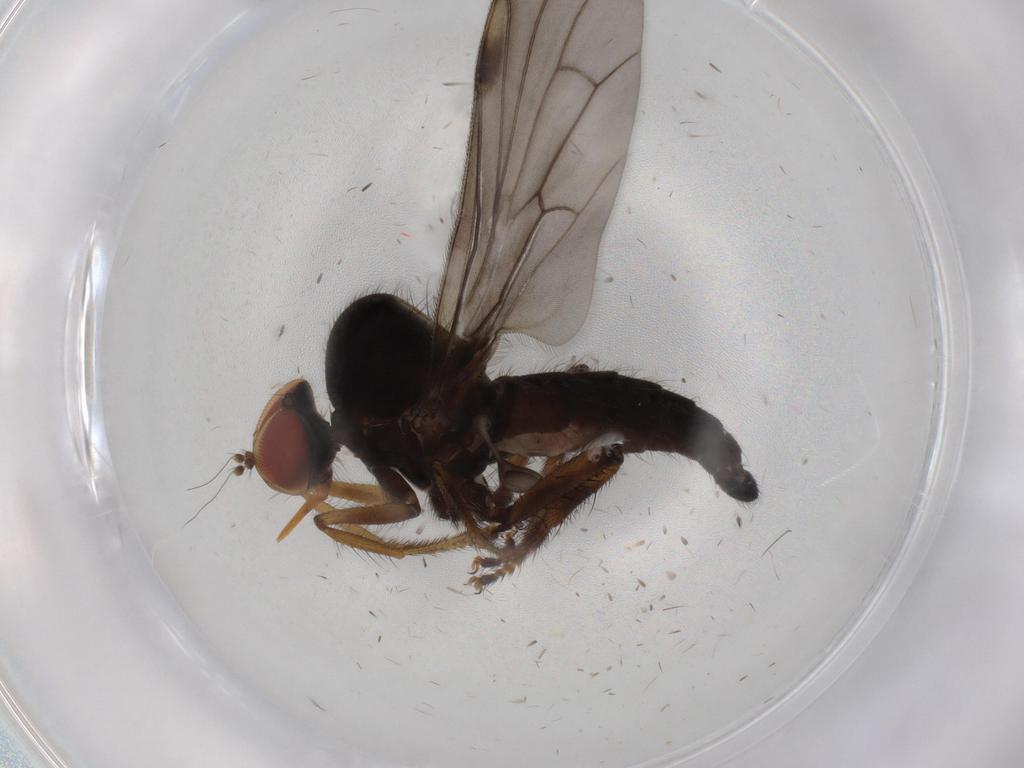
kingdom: Animalia
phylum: Arthropoda
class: Insecta
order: Diptera
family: Hybotidae
